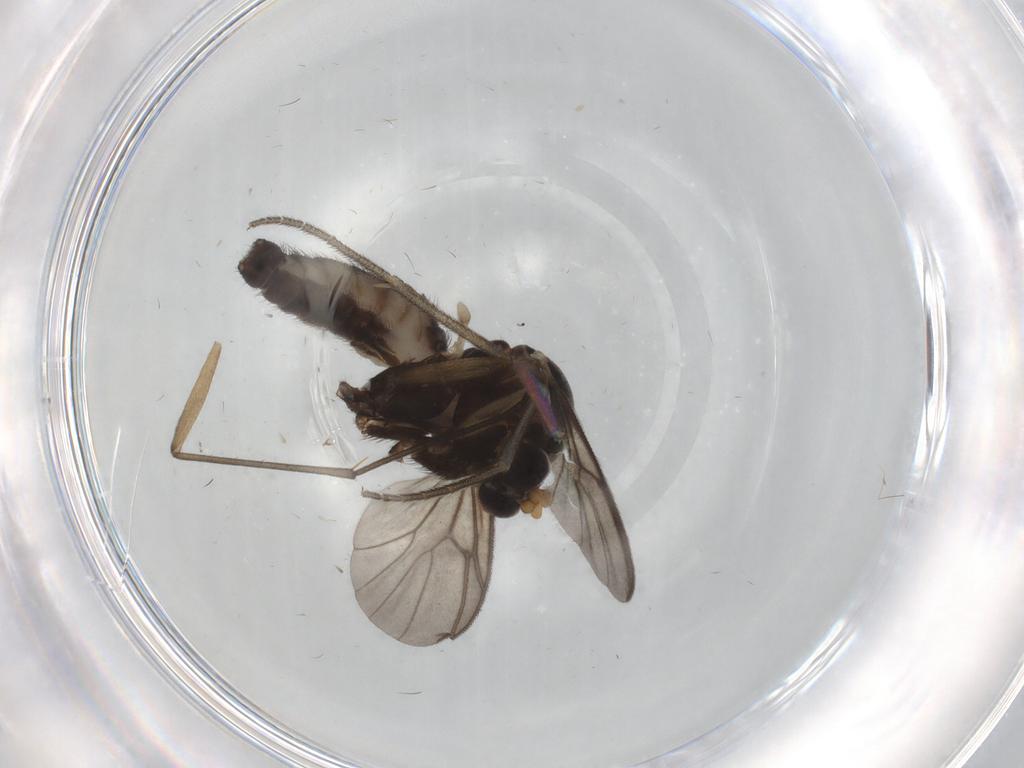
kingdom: Animalia
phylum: Arthropoda
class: Insecta
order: Diptera
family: Mycetophilidae
